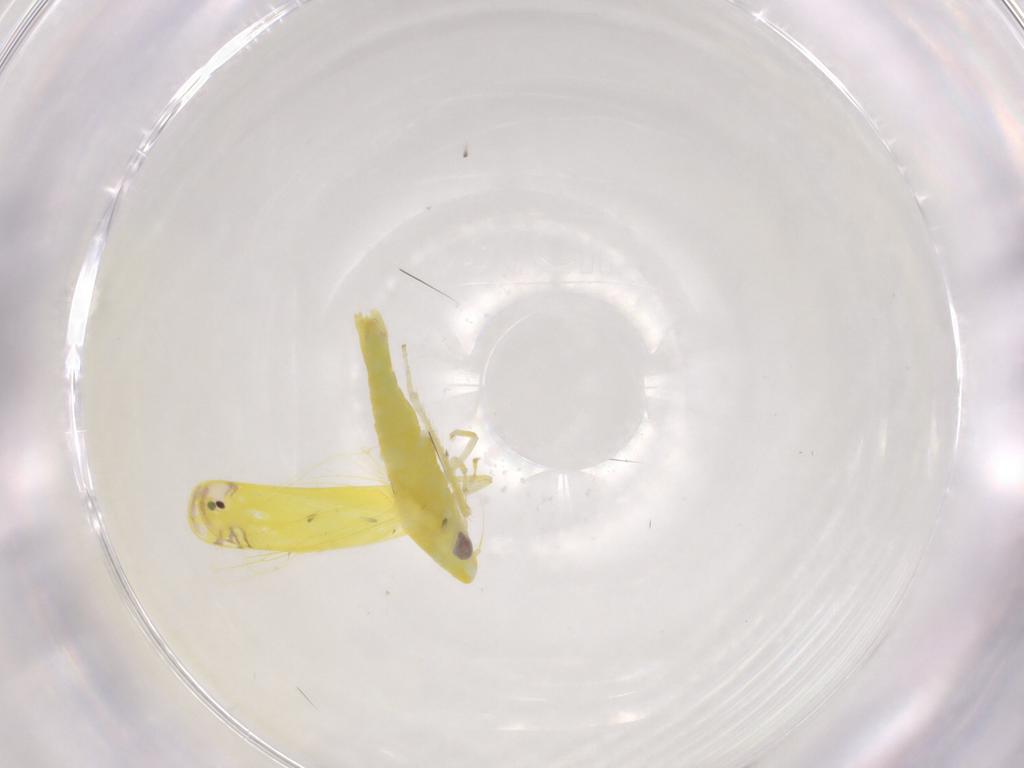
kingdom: Animalia
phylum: Arthropoda
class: Insecta
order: Hemiptera
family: Cicadellidae
